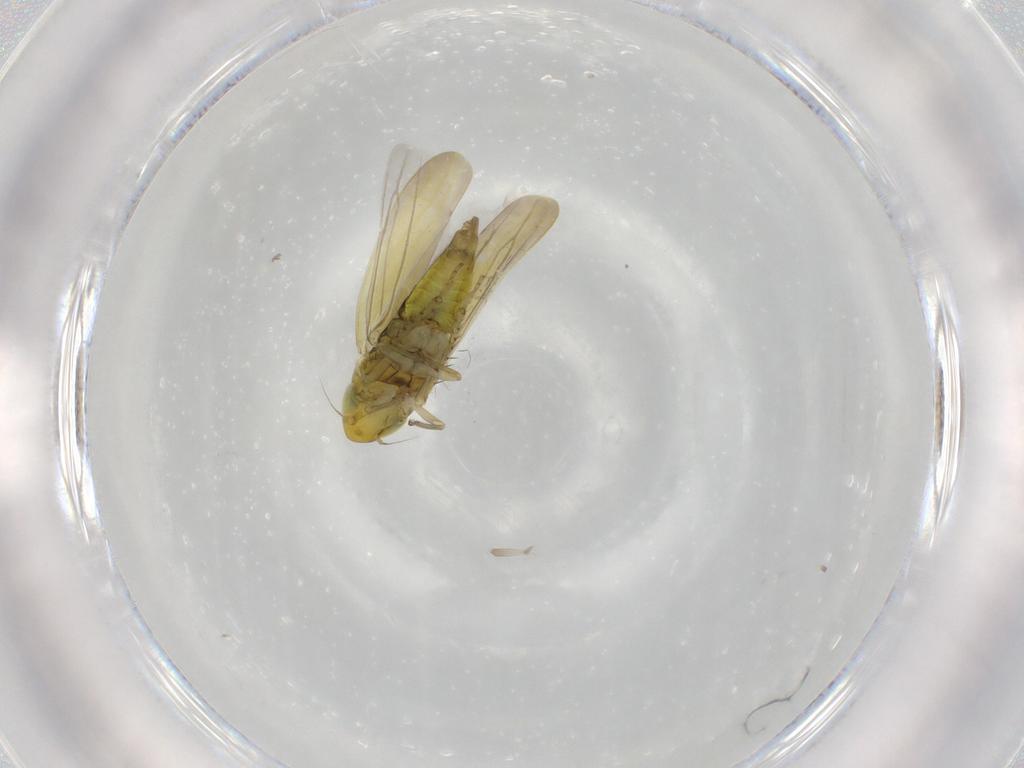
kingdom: Animalia
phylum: Arthropoda
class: Insecta
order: Hemiptera
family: Cicadellidae
